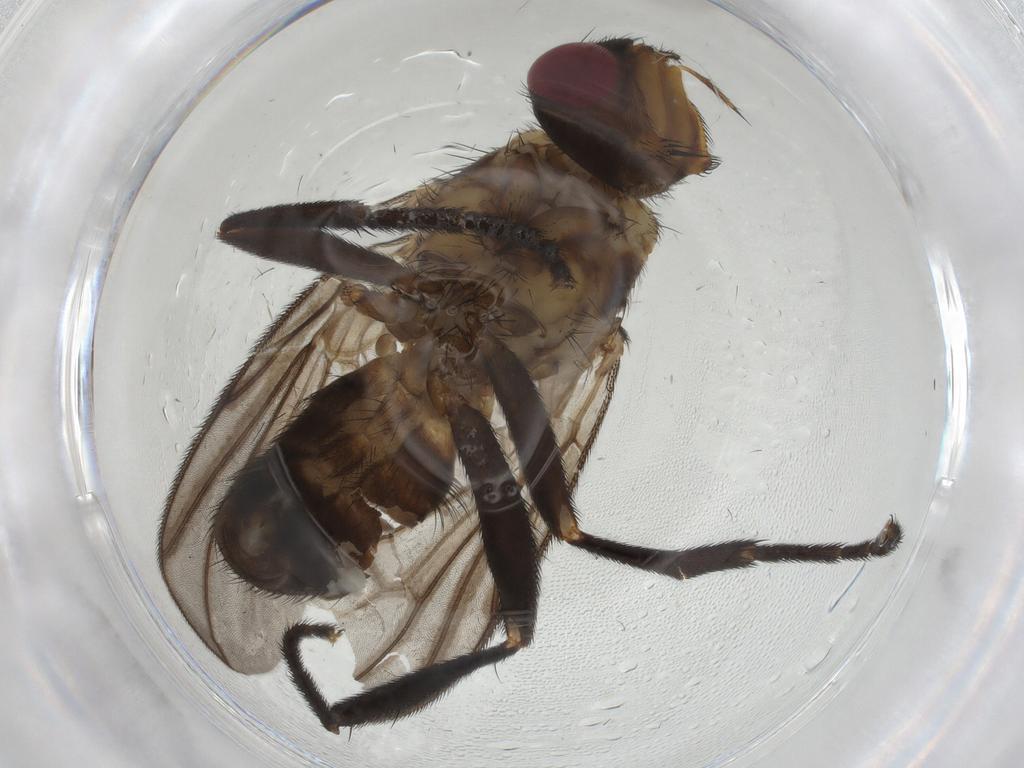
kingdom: Animalia
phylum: Arthropoda
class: Insecta
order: Diptera
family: Calliphoridae
